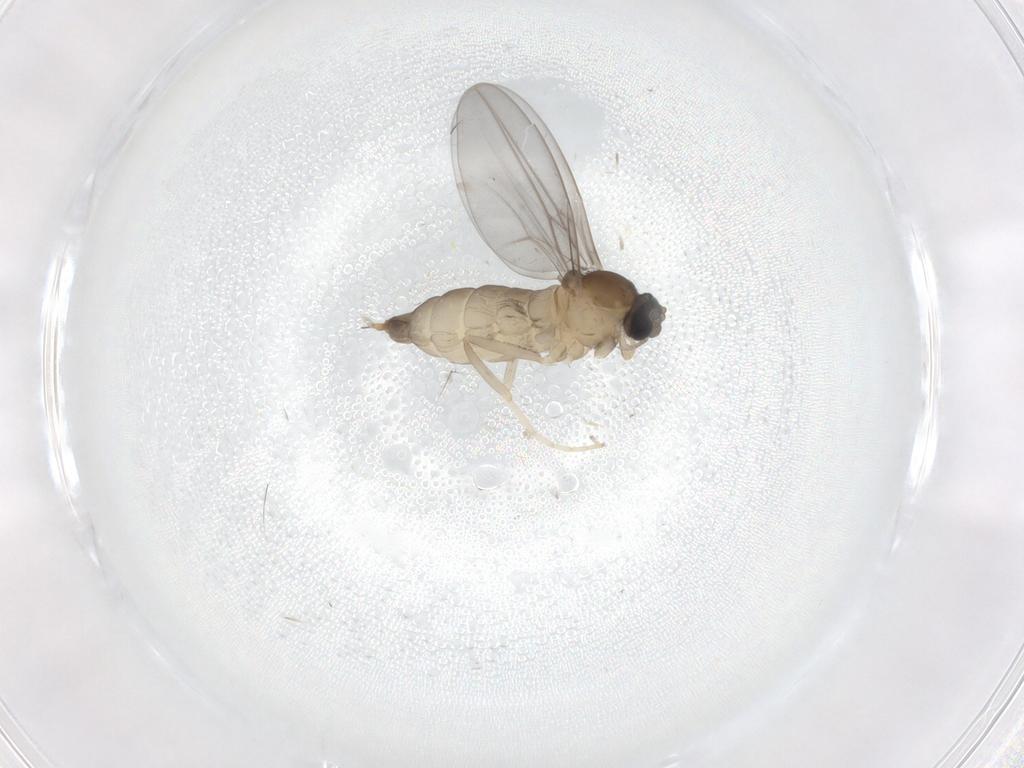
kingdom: Animalia
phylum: Arthropoda
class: Insecta
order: Diptera
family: Cecidomyiidae
